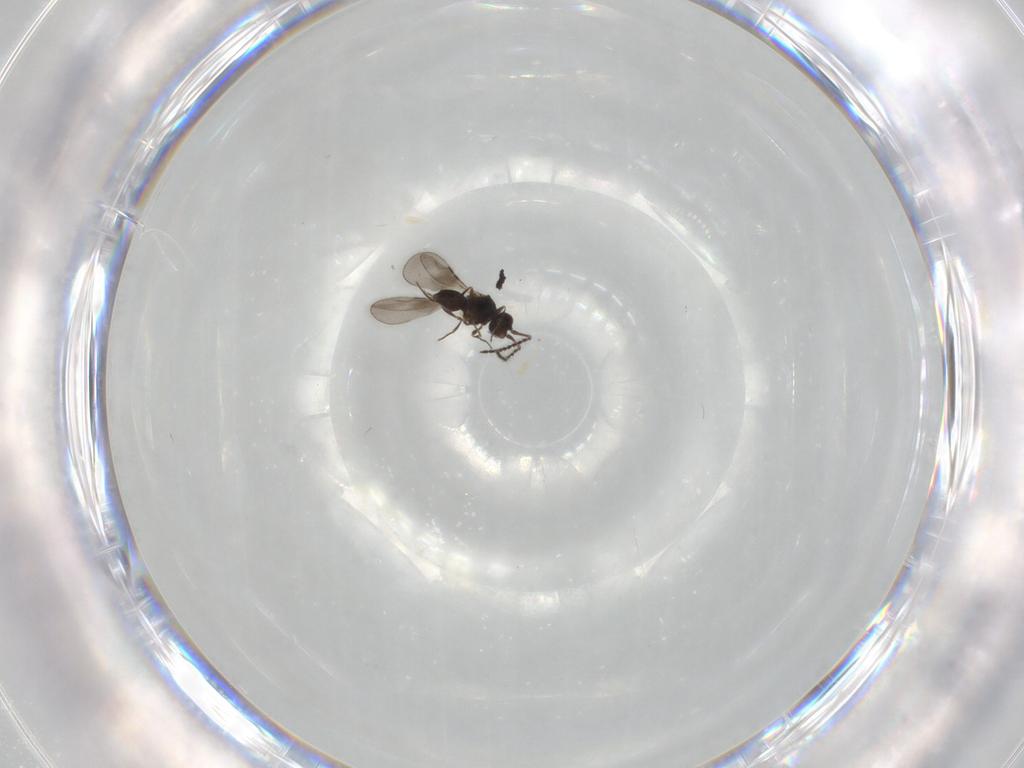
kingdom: Animalia
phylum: Arthropoda
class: Insecta
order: Hymenoptera
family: Ceraphronidae
